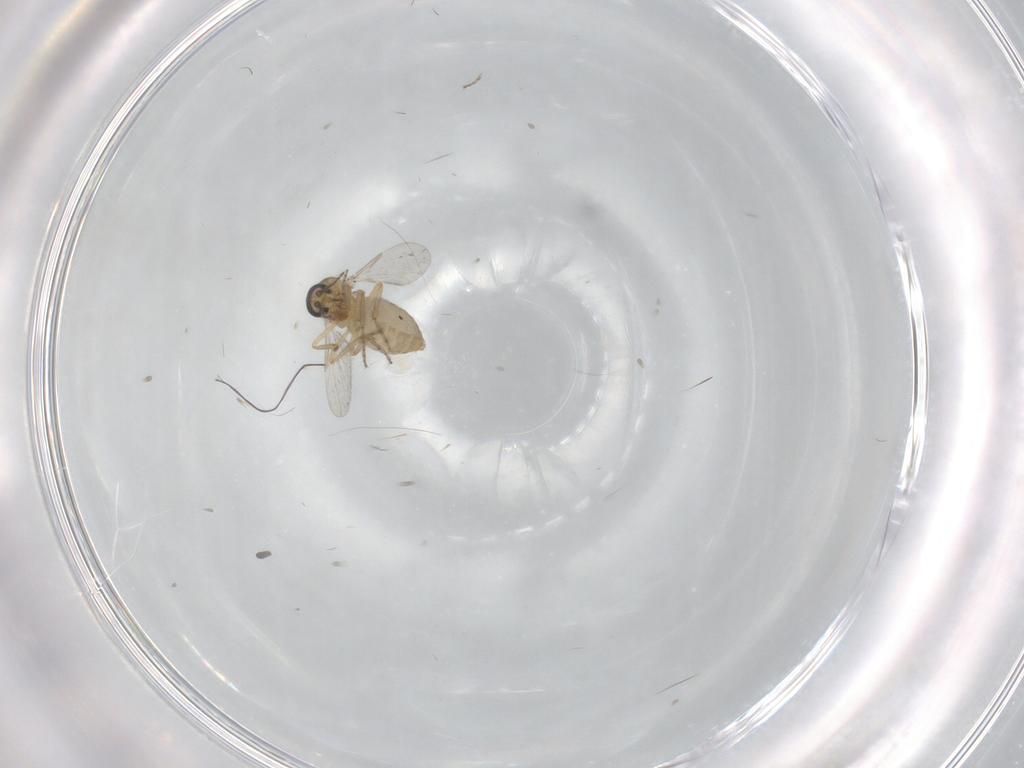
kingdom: Animalia
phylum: Arthropoda
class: Insecta
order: Diptera
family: Ceratopogonidae
